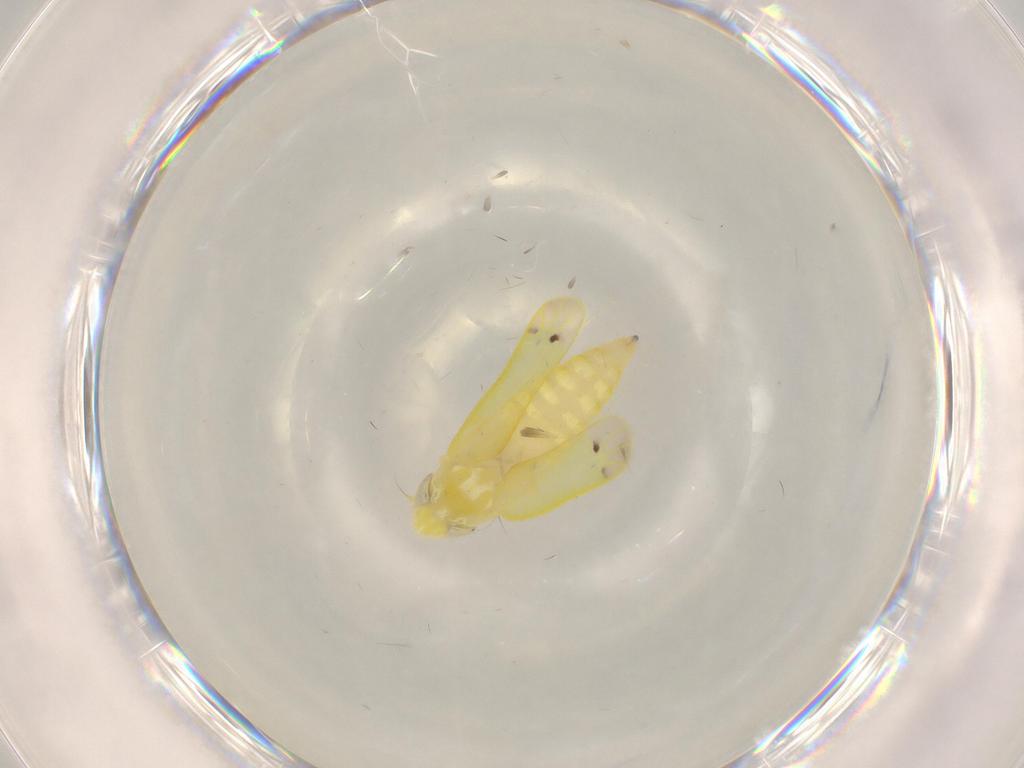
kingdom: Animalia
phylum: Arthropoda
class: Insecta
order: Hemiptera
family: Cicadellidae
